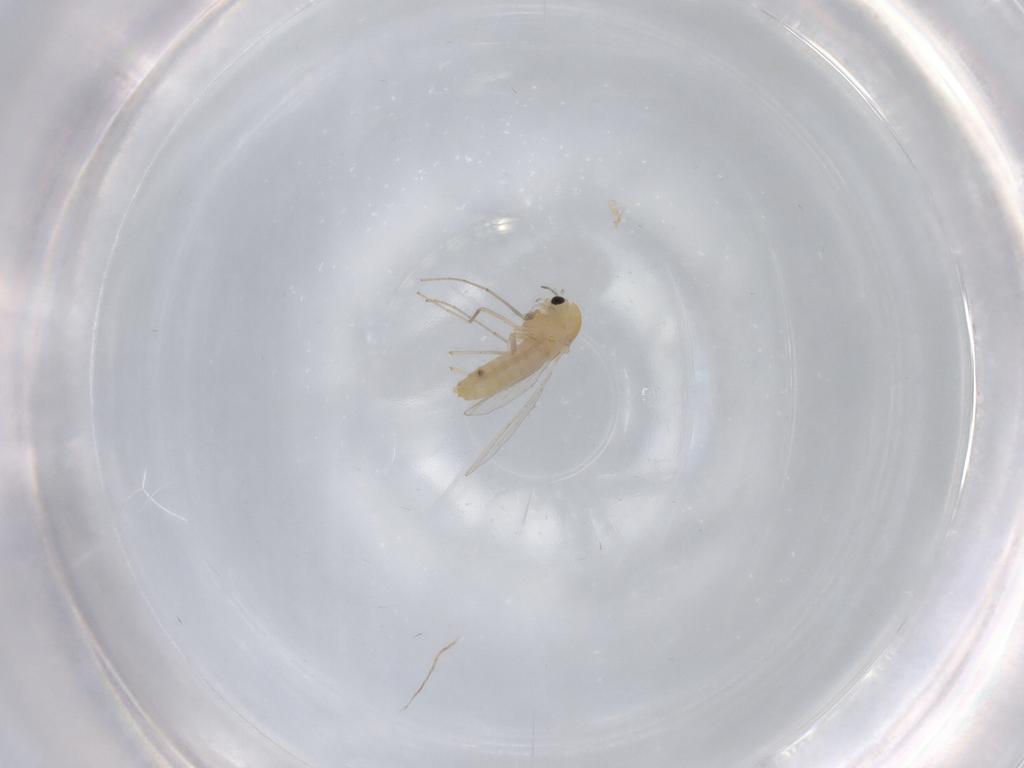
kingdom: Animalia
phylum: Arthropoda
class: Insecta
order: Diptera
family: Chironomidae
